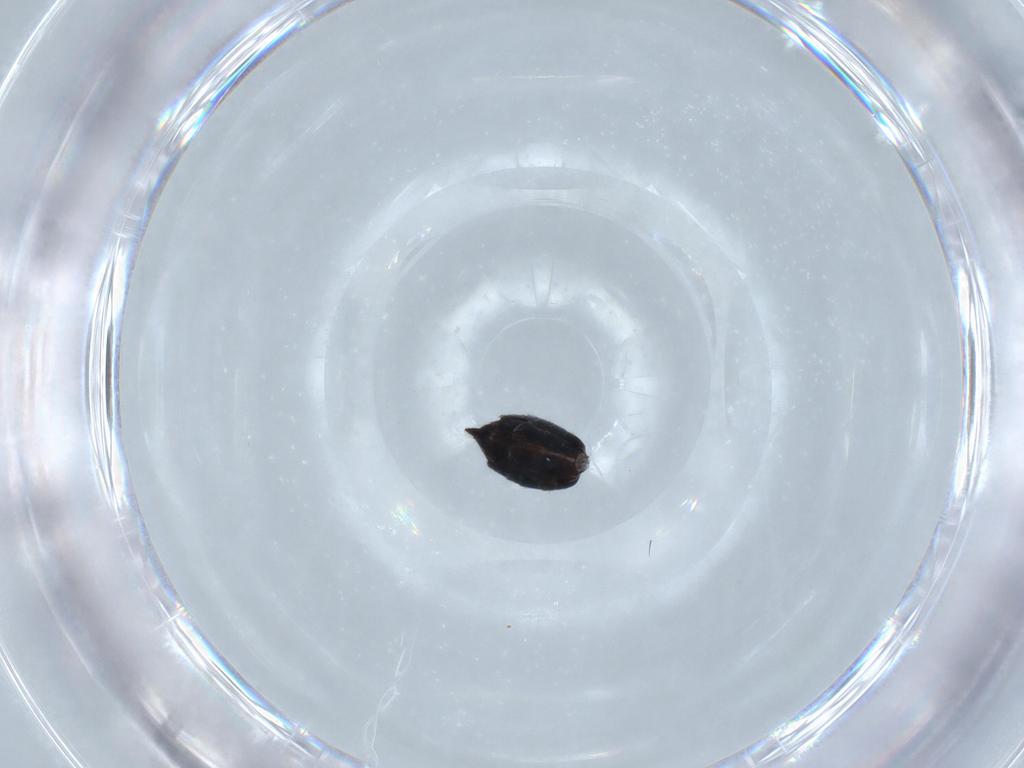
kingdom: Animalia
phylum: Arthropoda
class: Insecta
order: Hymenoptera
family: Eulophidae
